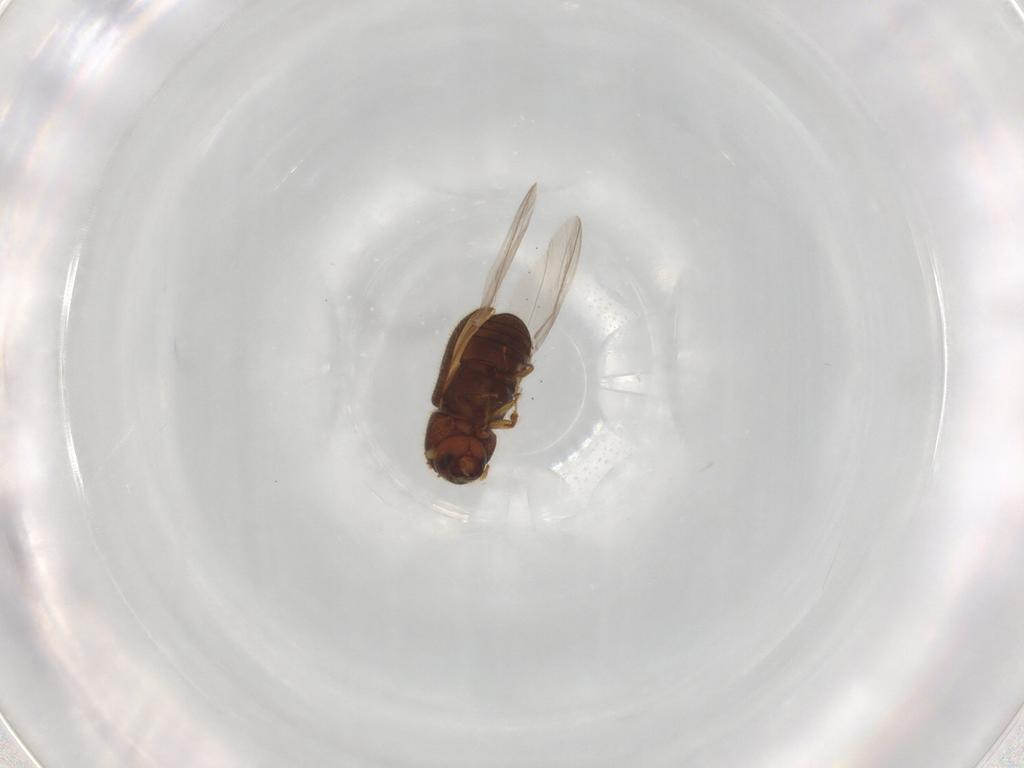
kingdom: Animalia
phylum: Arthropoda
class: Insecta
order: Coleoptera
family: Curculionidae
